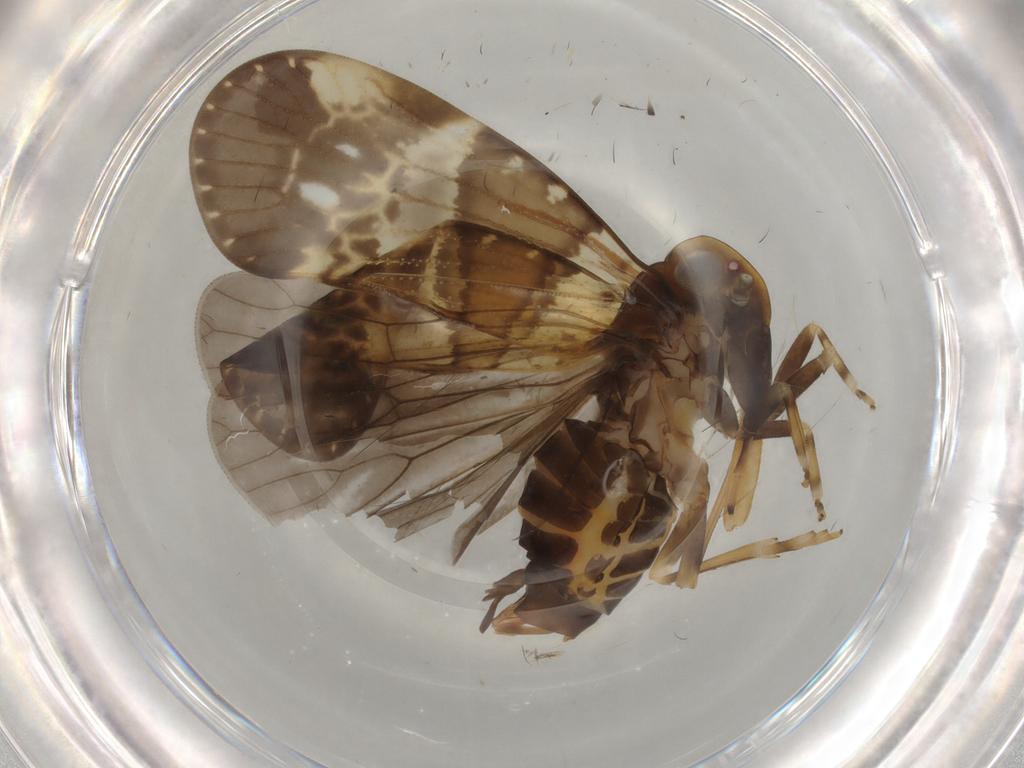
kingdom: Animalia
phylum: Arthropoda
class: Insecta
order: Hemiptera
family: Cixiidae
